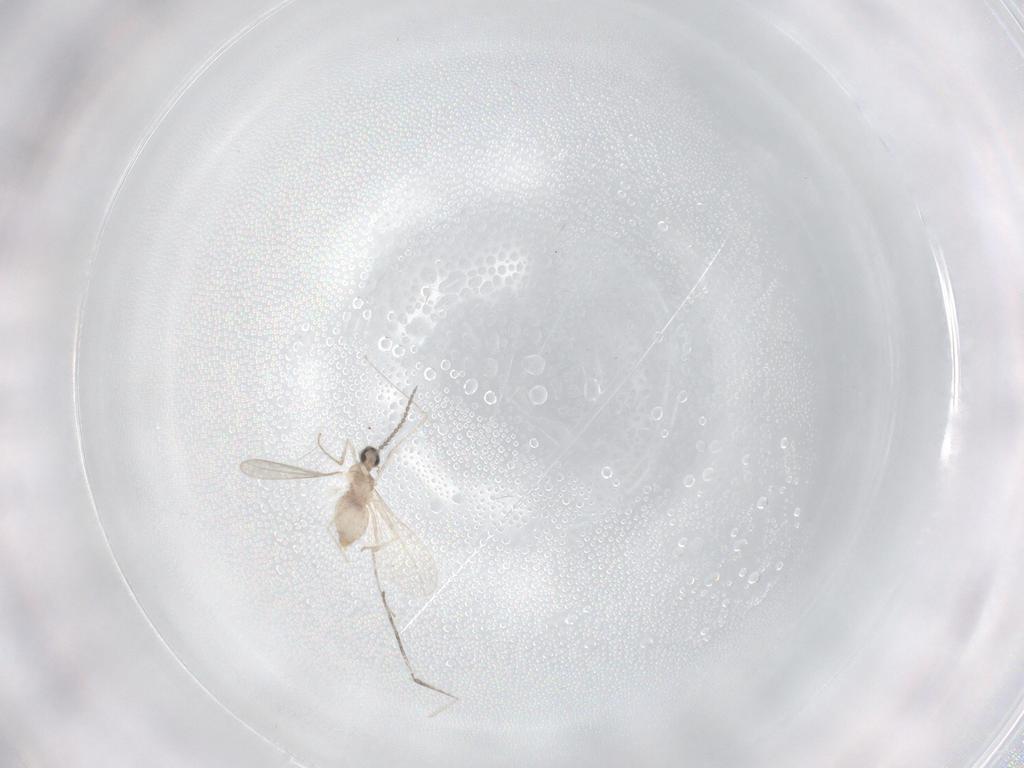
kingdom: Animalia
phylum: Arthropoda
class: Insecta
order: Diptera
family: Cecidomyiidae
